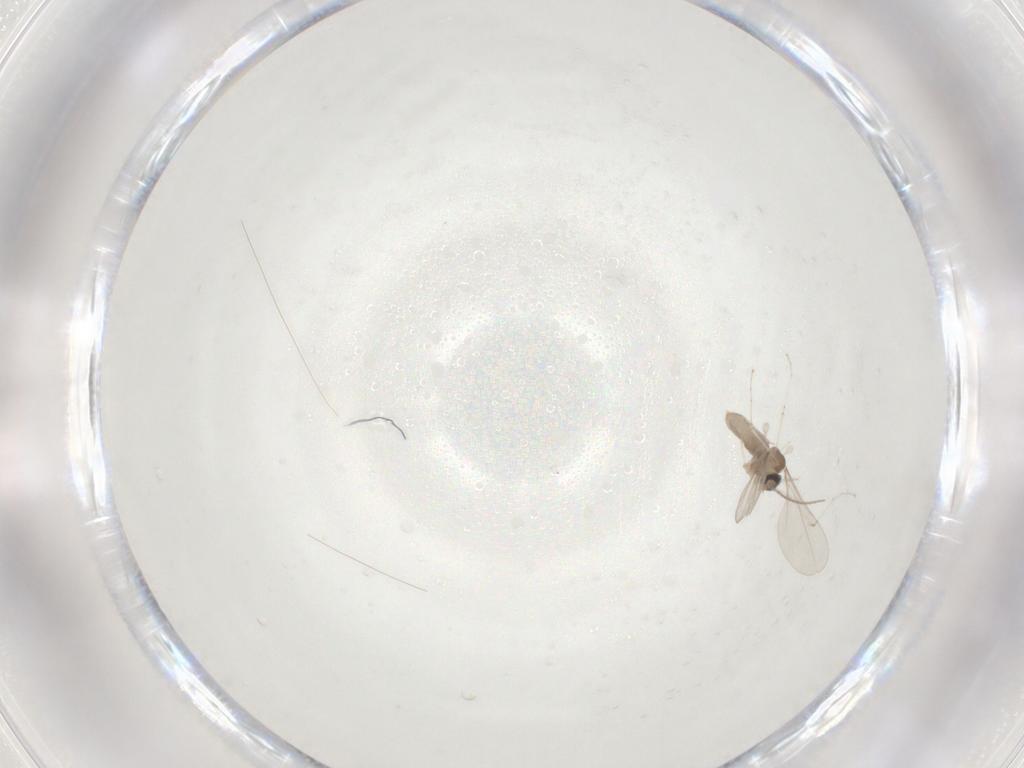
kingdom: Animalia
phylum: Arthropoda
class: Insecta
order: Diptera
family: Cecidomyiidae
